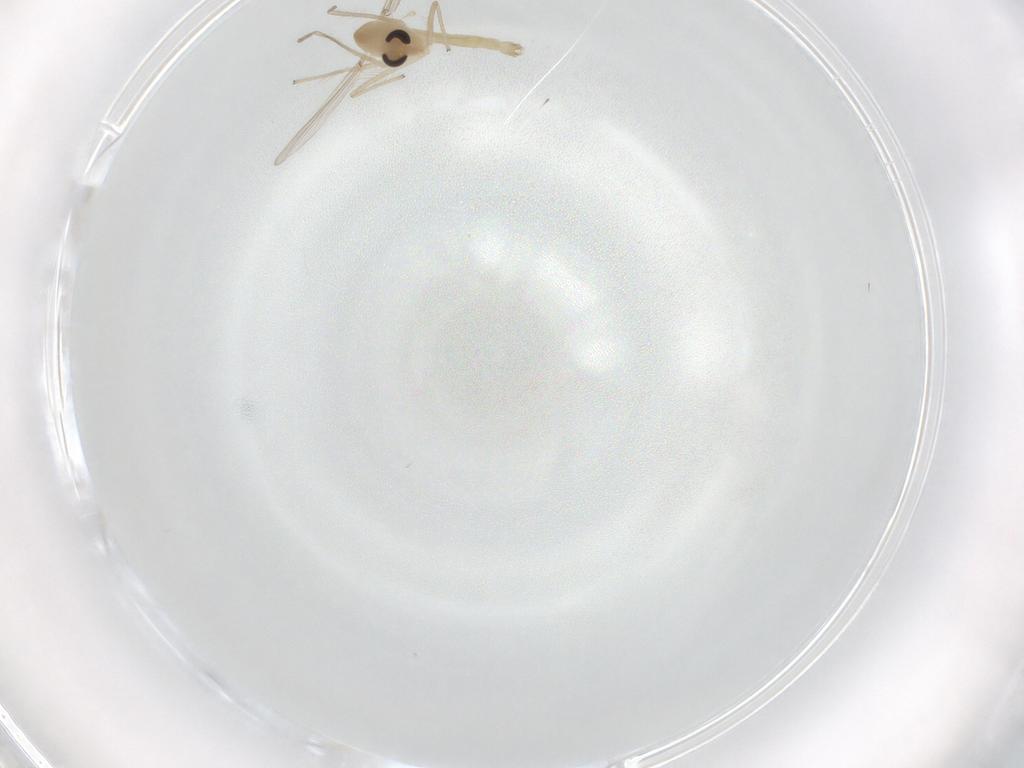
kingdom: Animalia
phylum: Arthropoda
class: Insecta
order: Diptera
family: Chironomidae
